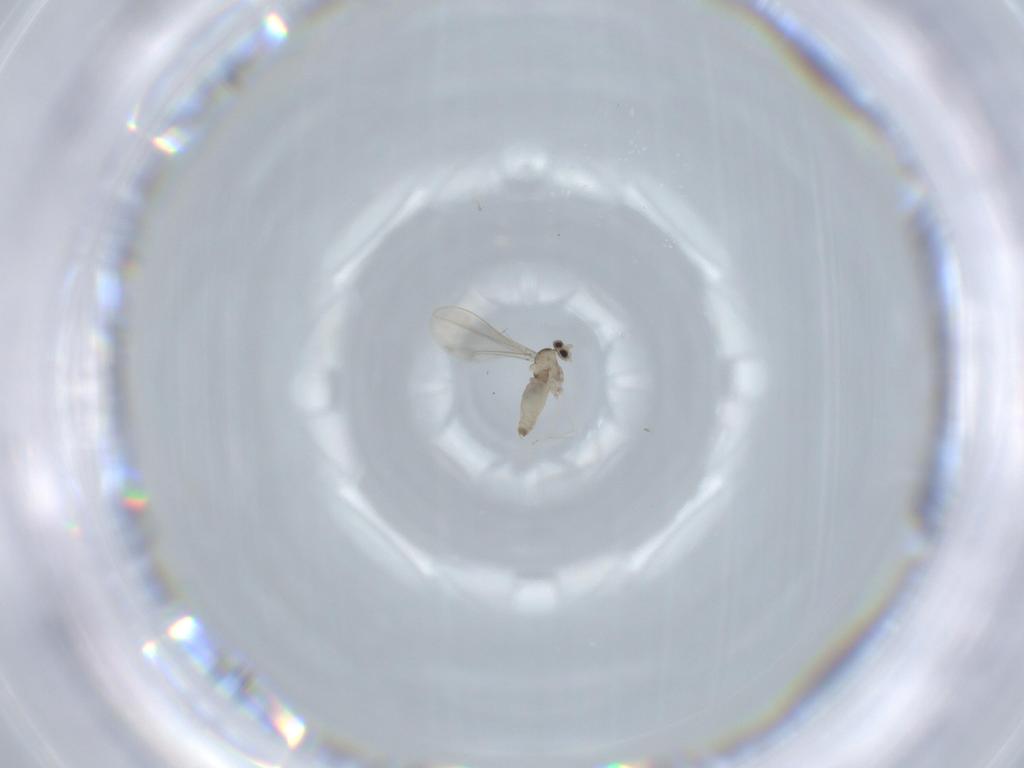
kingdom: Animalia
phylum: Arthropoda
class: Insecta
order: Diptera
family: Cecidomyiidae
